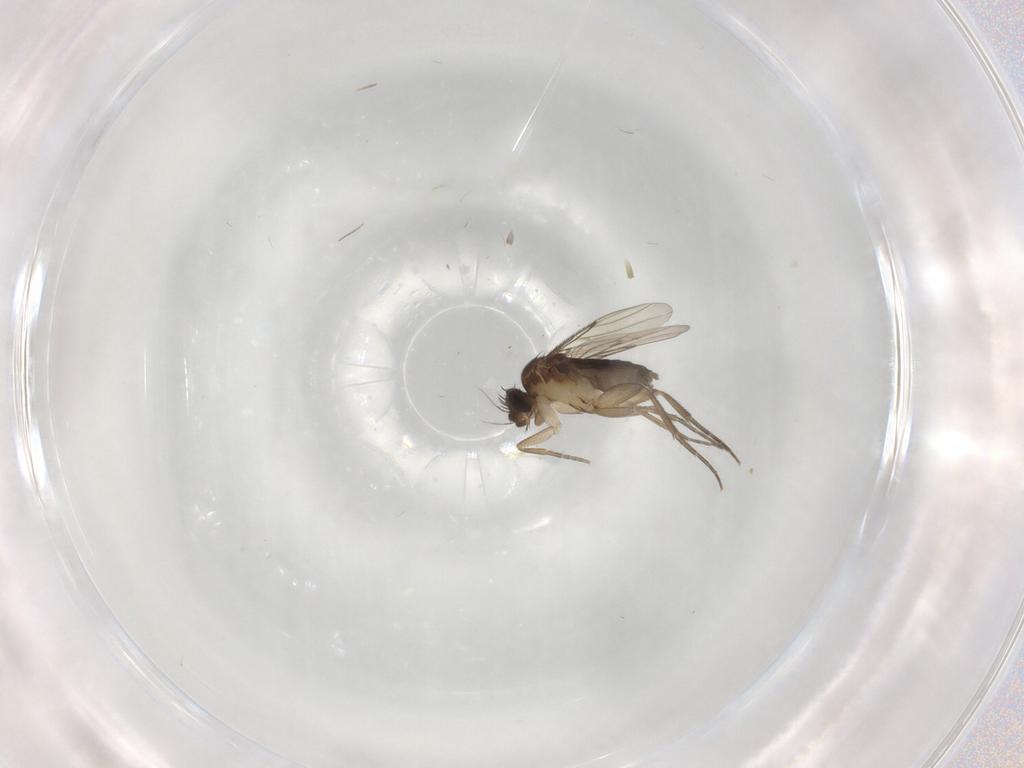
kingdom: Animalia
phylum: Arthropoda
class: Insecta
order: Diptera
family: Chironomidae
